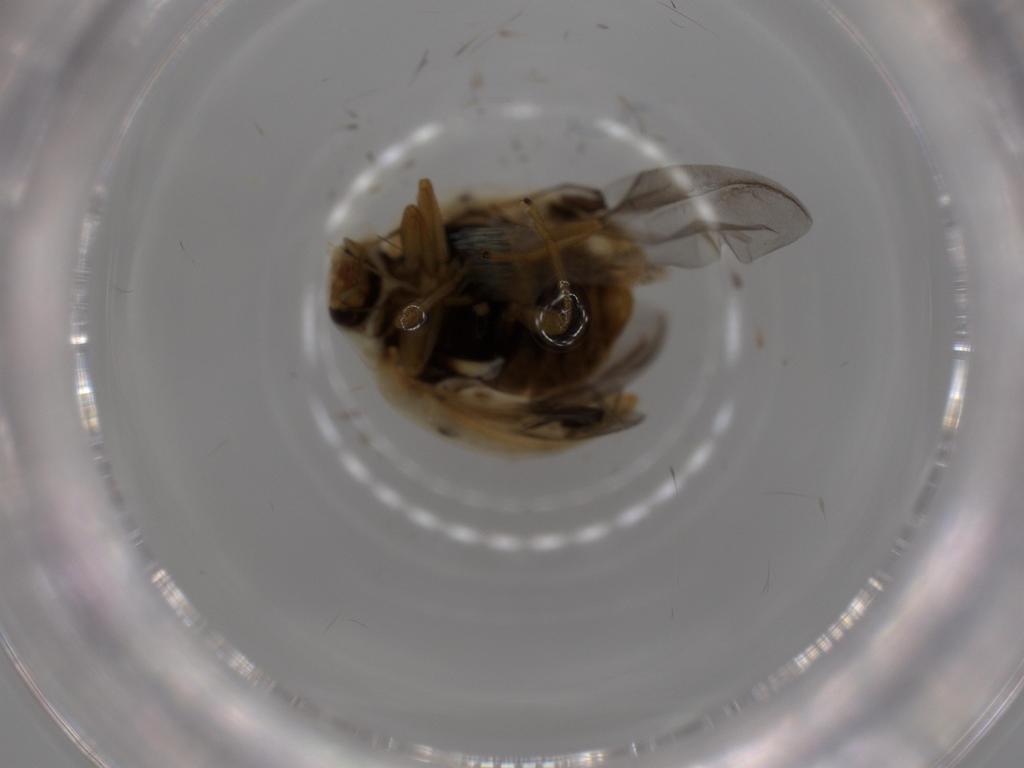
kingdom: Animalia
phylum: Arthropoda
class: Insecta
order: Coleoptera
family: Coccinellidae
